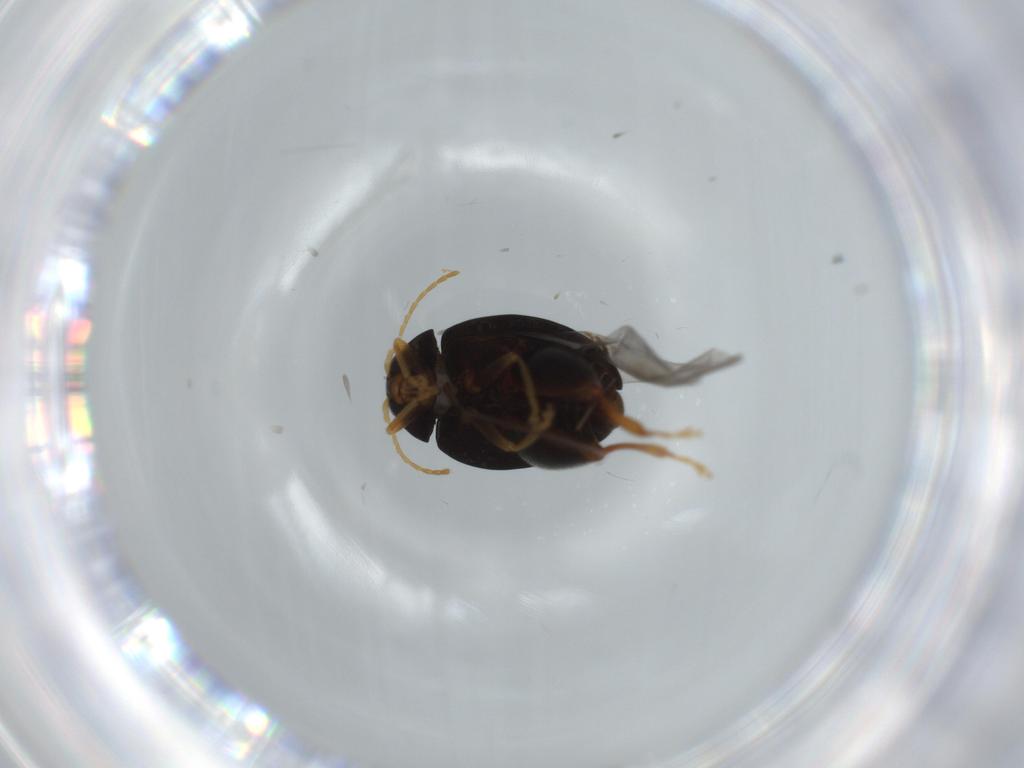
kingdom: Animalia
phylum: Arthropoda
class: Insecta
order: Coleoptera
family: Chrysomelidae
